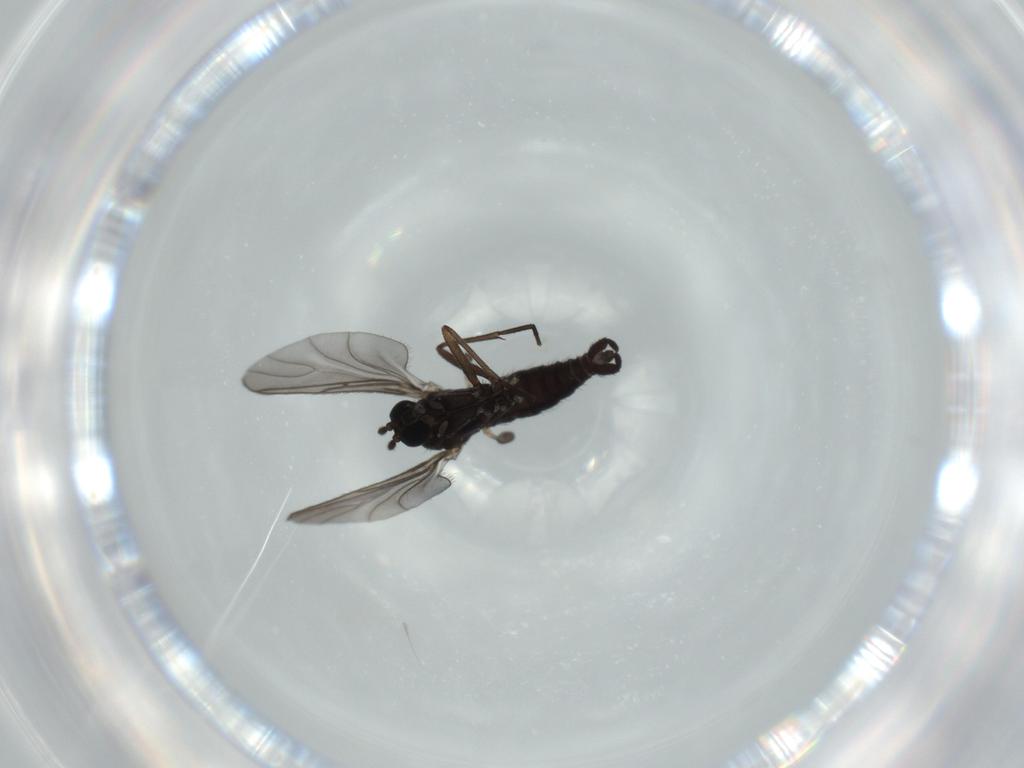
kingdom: Animalia
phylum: Arthropoda
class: Insecta
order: Diptera
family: Sciaridae
